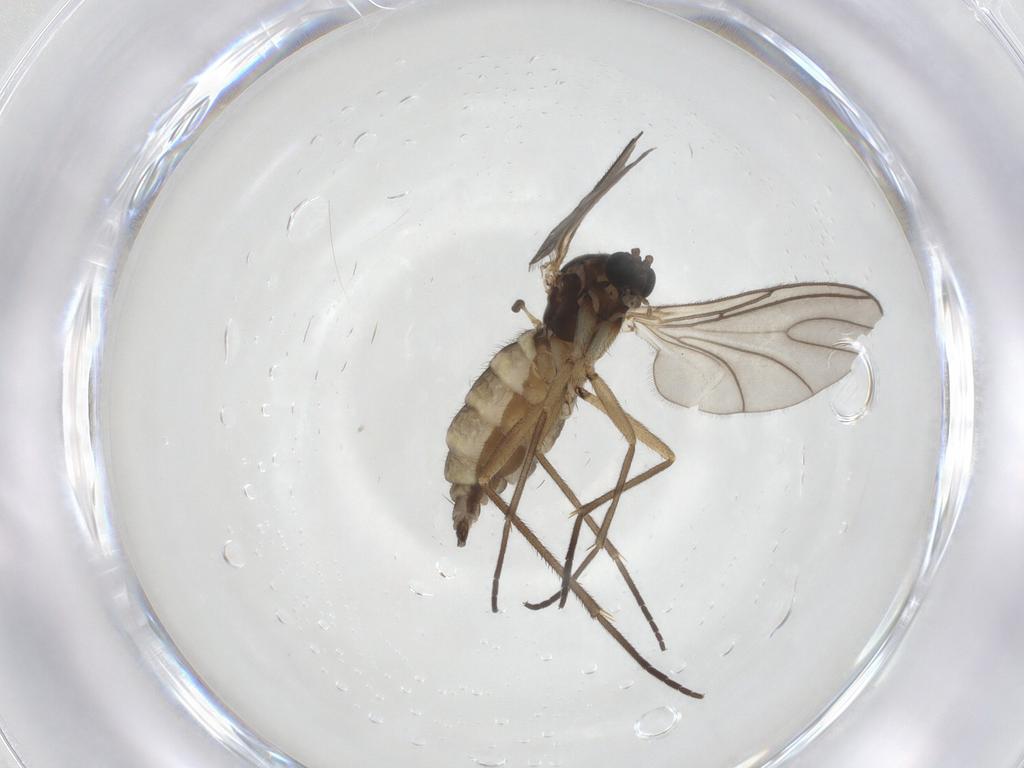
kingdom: Animalia
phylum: Arthropoda
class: Insecta
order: Diptera
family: Sciaridae
